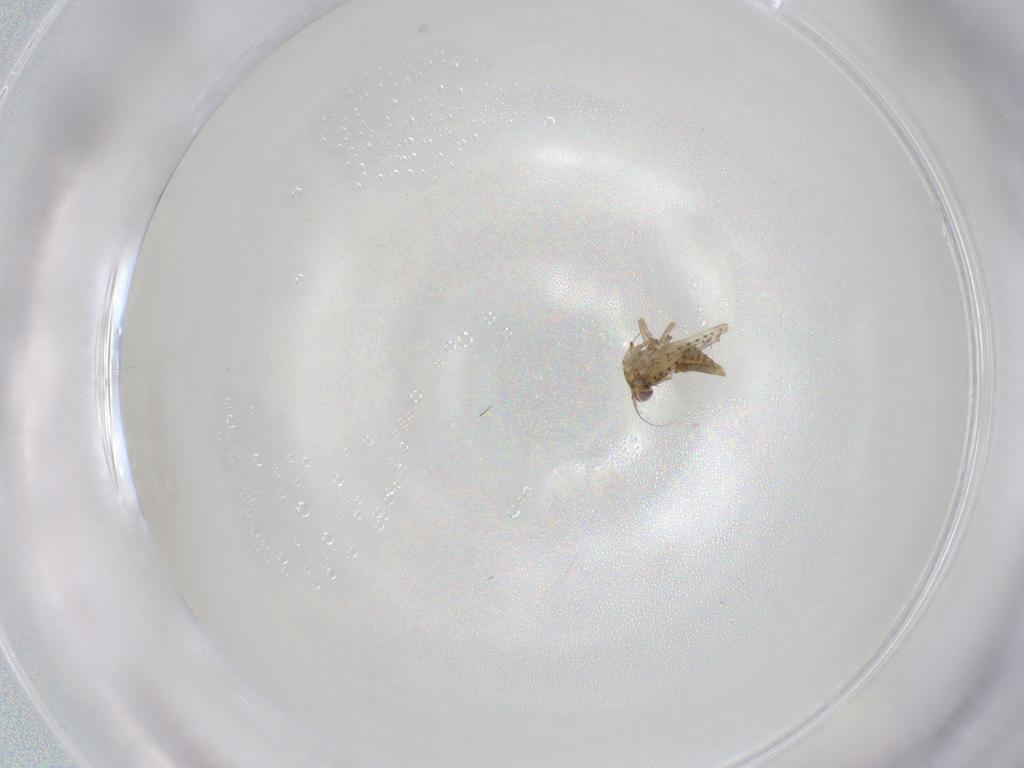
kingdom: Animalia
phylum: Arthropoda
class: Insecta
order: Hemiptera
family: Cicadellidae
